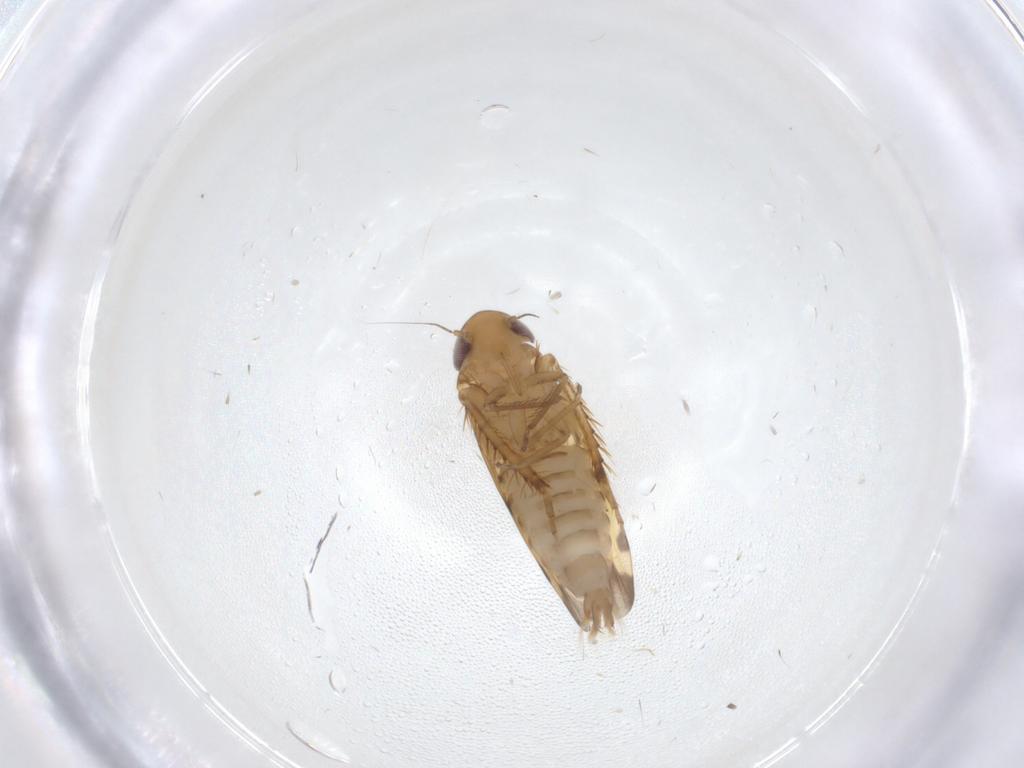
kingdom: Animalia
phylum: Arthropoda
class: Insecta
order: Hemiptera
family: Cicadellidae
